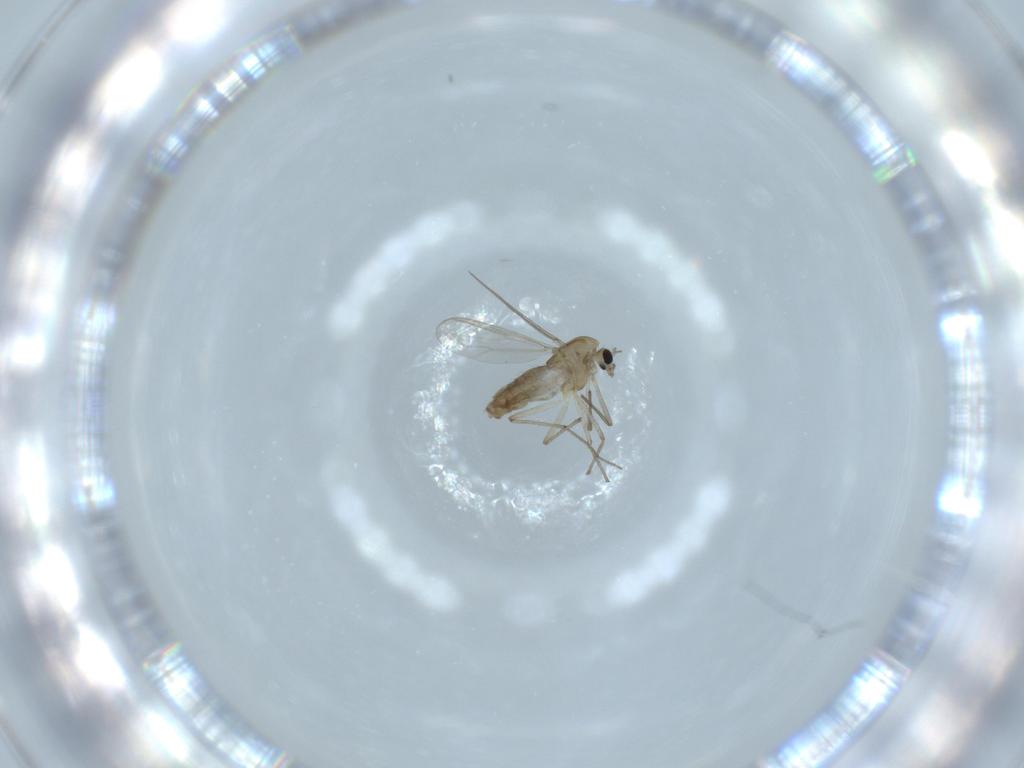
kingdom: Animalia
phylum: Arthropoda
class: Insecta
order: Diptera
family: Chironomidae
